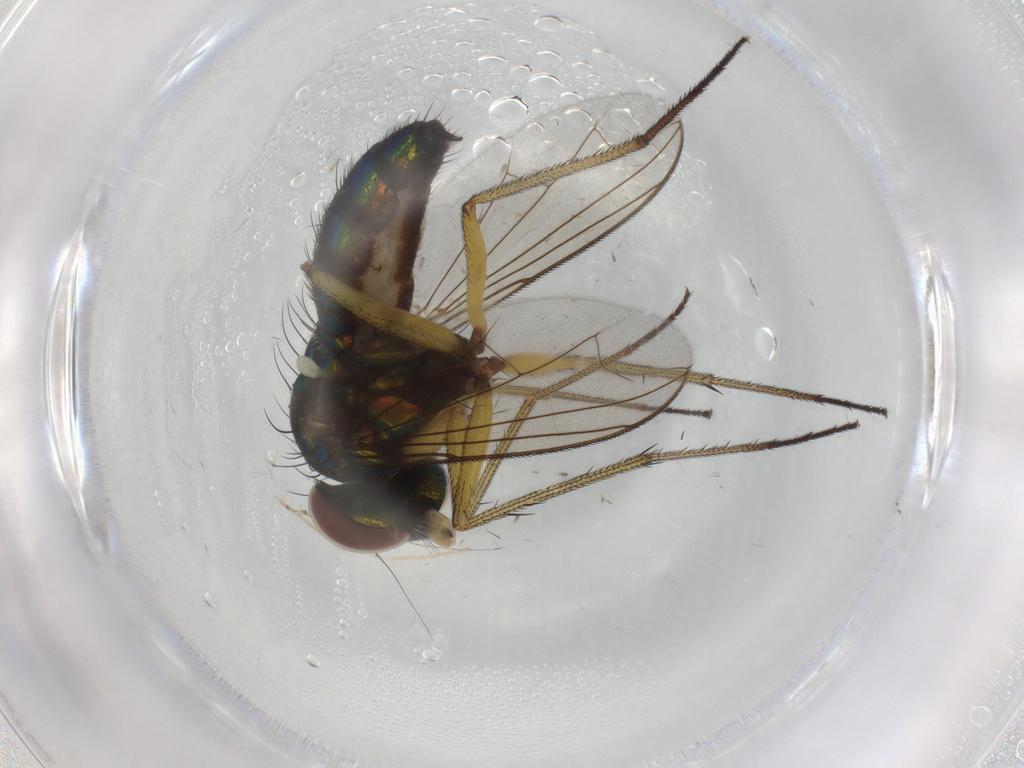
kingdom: Animalia
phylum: Arthropoda
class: Insecta
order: Diptera
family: Dolichopodidae
